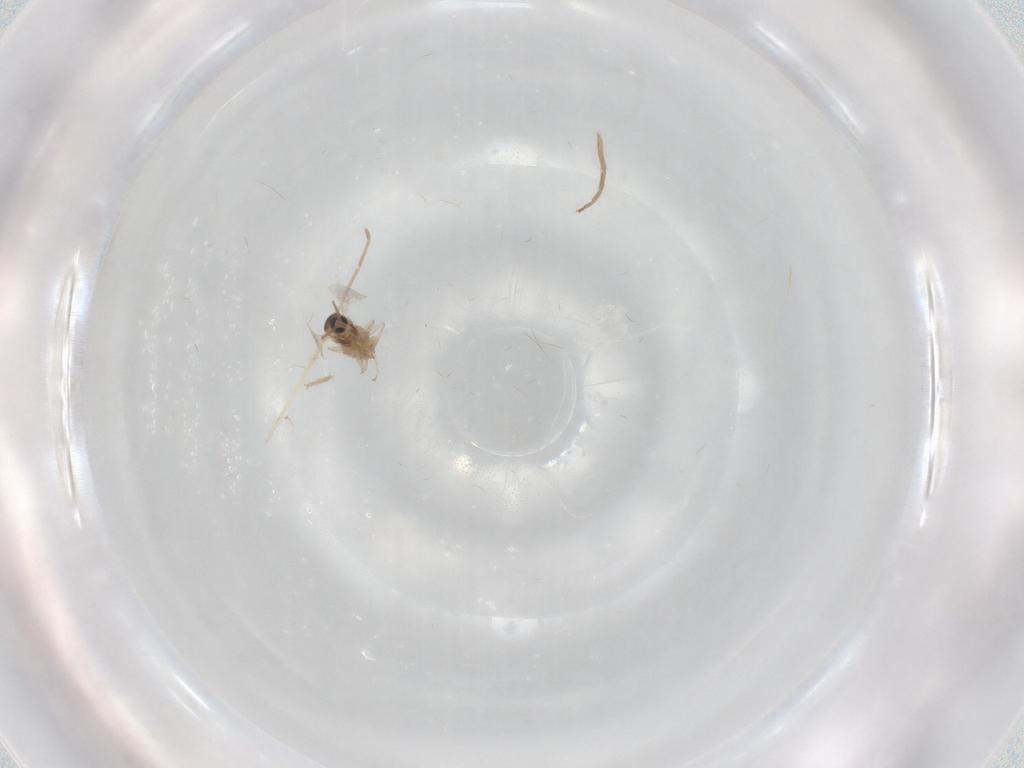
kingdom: Animalia
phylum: Arthropoda
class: Insecta
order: Diptera
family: Chironomidae
